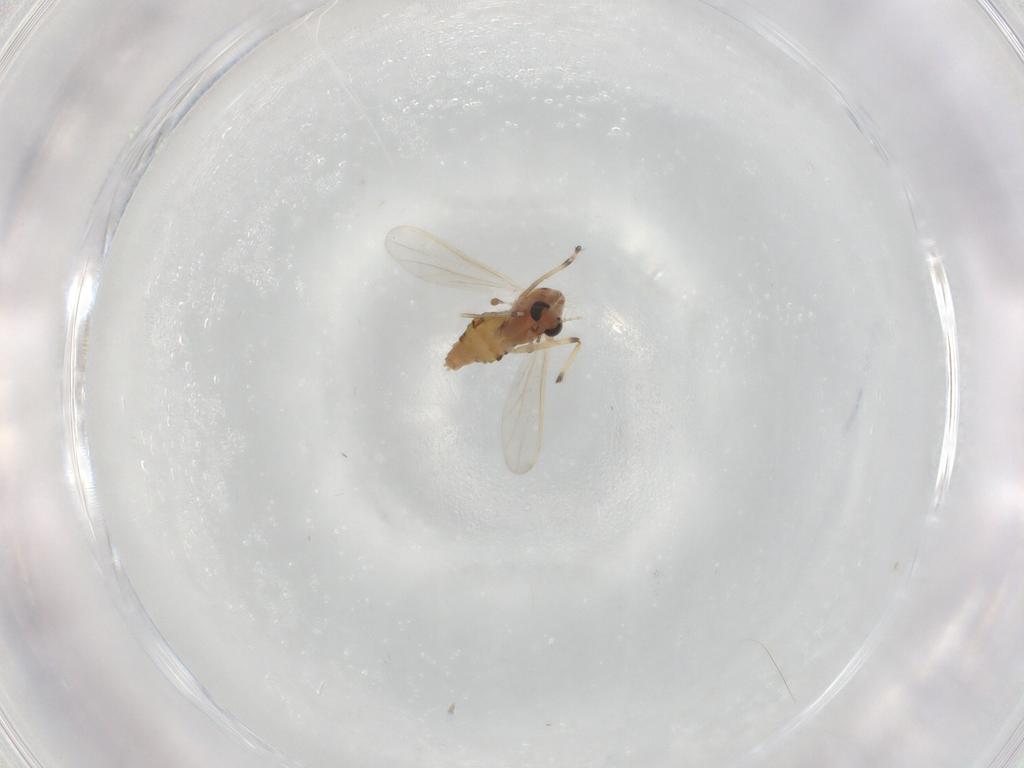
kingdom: Animalia
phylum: Arthropoda
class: Insecta
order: Diptera
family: Chironomidae
